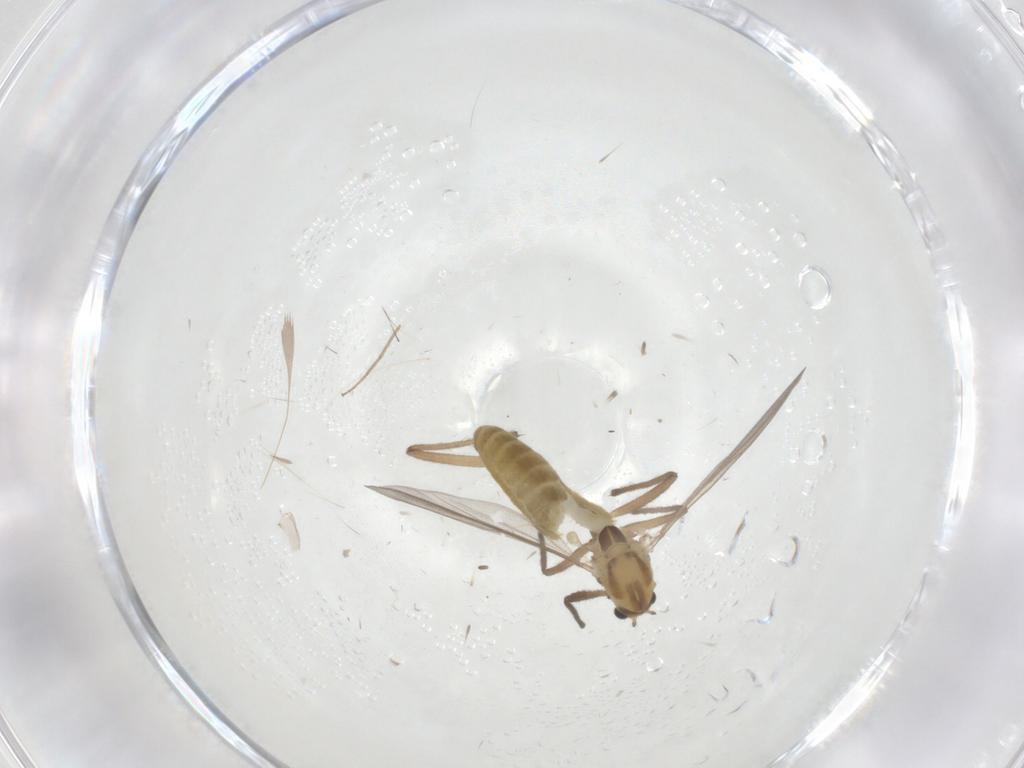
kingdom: Animalia
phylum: Arthropoda
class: Insecta
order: Diptera
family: Chironomidae
